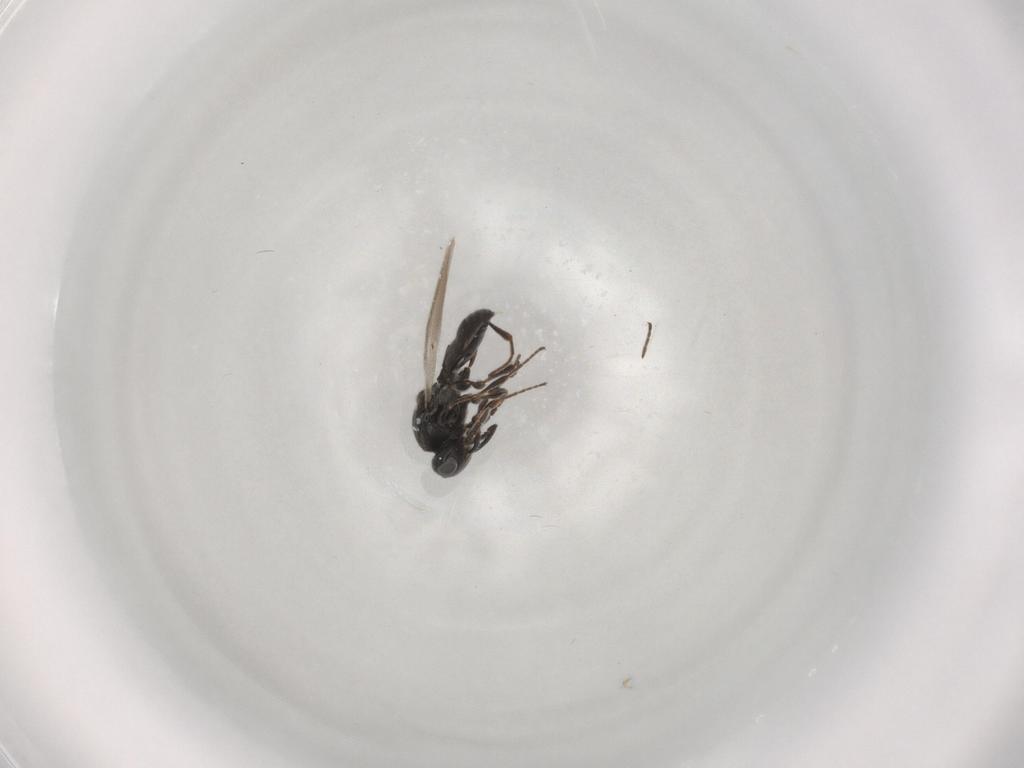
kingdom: Animalia
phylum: Arthropoda
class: Insecta
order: Hymenoptera
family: Platygastridae
